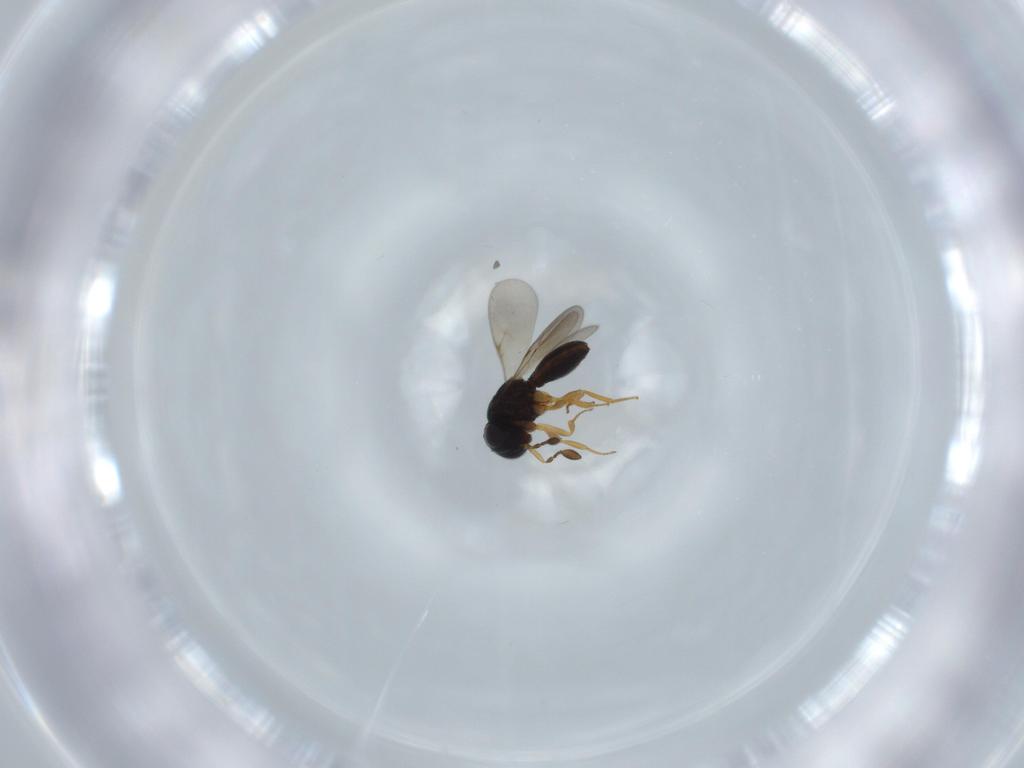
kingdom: Animalia
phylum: Arthropoda
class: Insecta
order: Hymenoptera
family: Scelionidae
